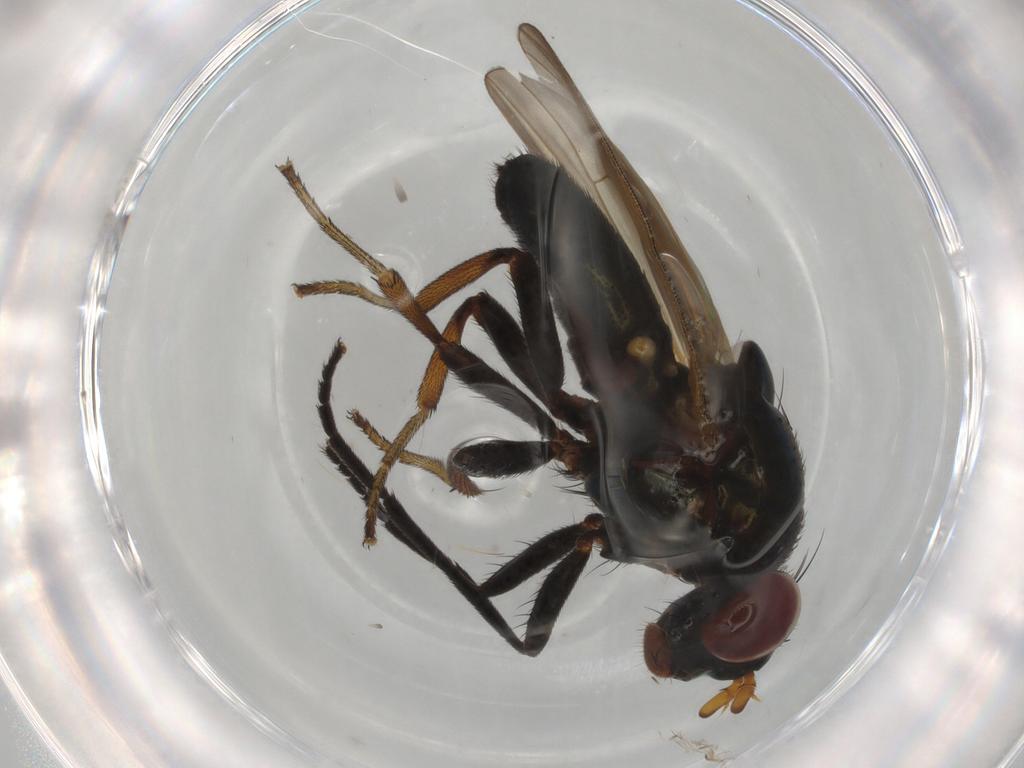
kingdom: Animalia
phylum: Arthropoda
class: Insecta
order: Diptera
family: Lauxaniidae
